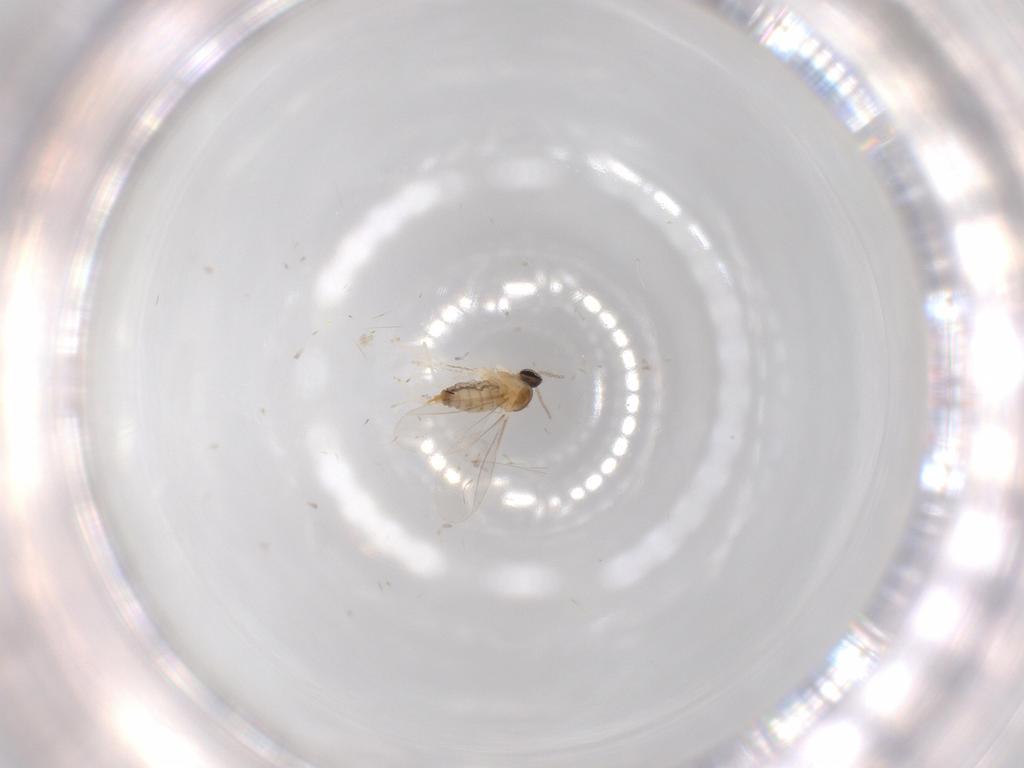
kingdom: Animalia
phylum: Arthropoda
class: Insecta
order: Diptera
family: Cecidomyiidae
